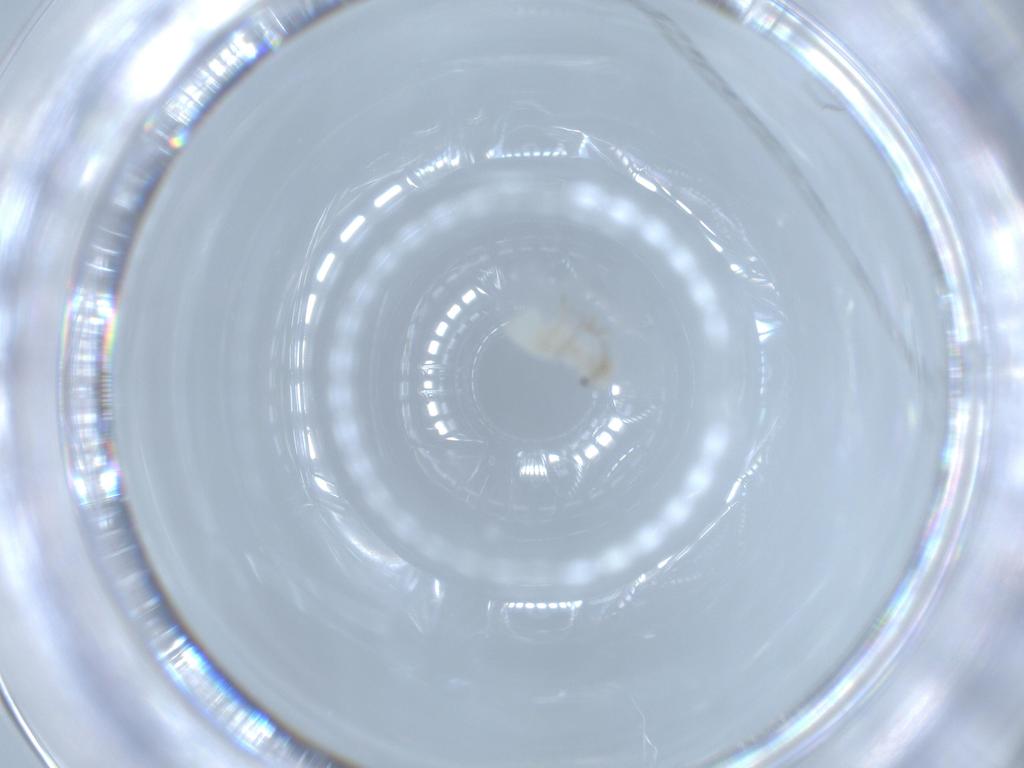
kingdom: Animalia
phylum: Arthropoda
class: Insecta
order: Psocodea
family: Caeciliusidae
